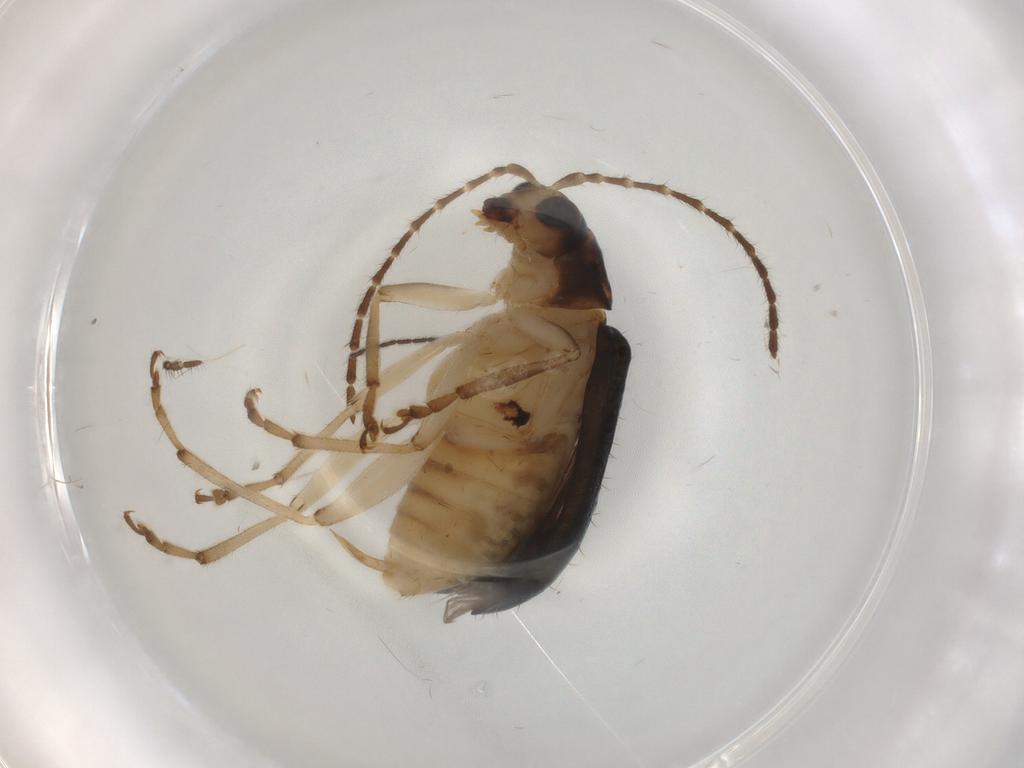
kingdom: Animalia
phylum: Arthropoda
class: Insecta
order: Coleoptera
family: Chrysomelidae
